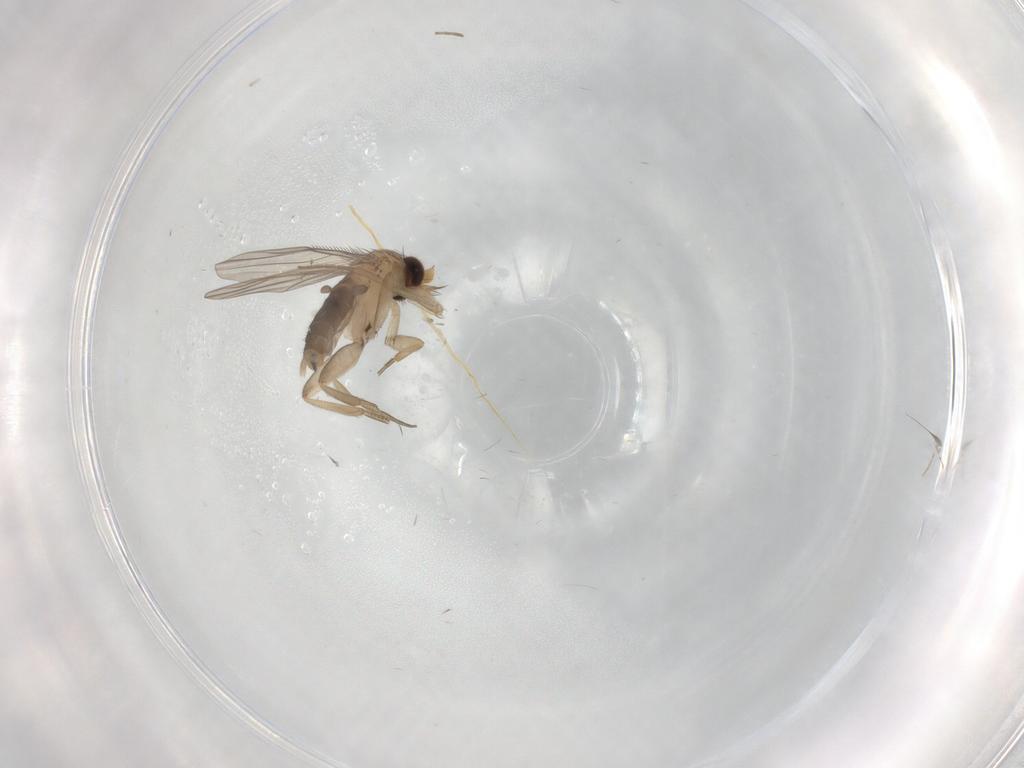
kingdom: Animalia
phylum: Arthropoda
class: Insecta
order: Diptera
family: Phoridae
